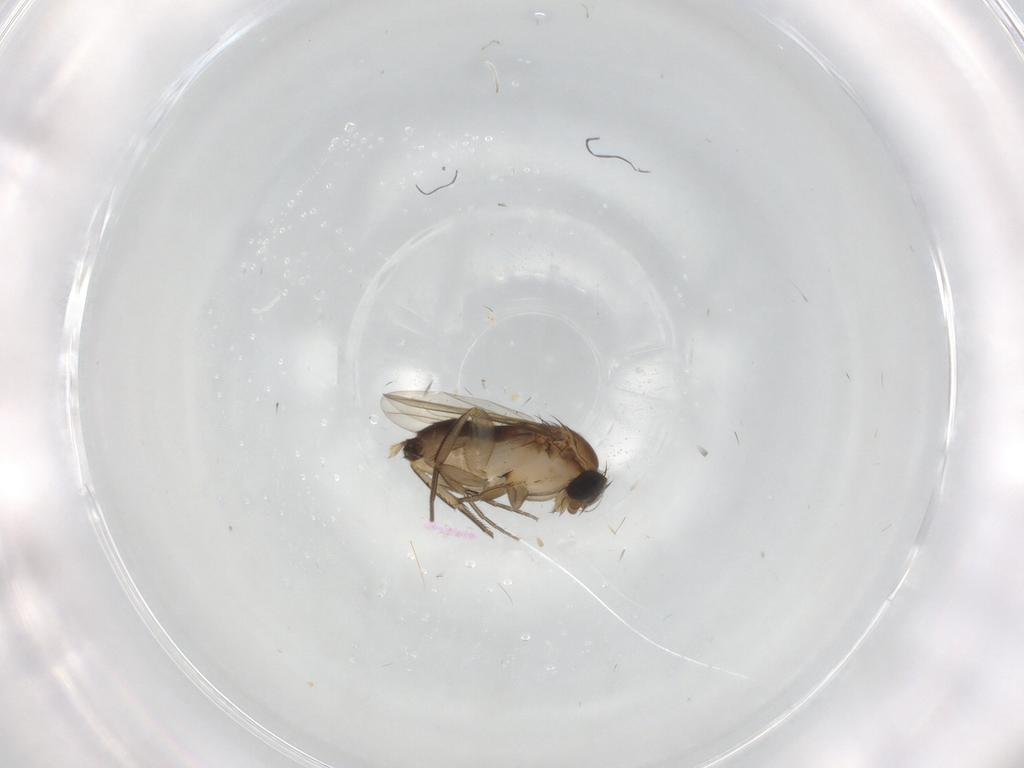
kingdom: Animalia
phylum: Arthropoda
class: Insecta
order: Diptera
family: Phoridae
